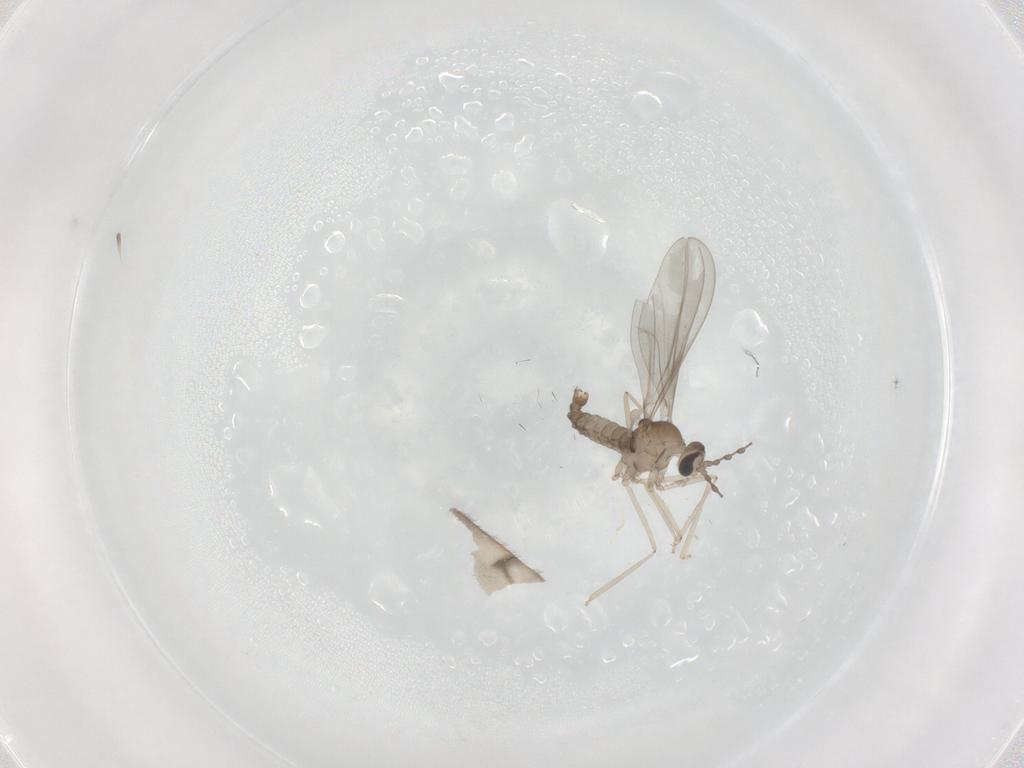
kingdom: Animalia
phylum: Arthropoda
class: Insecta
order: Diptera
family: Limoniidae
